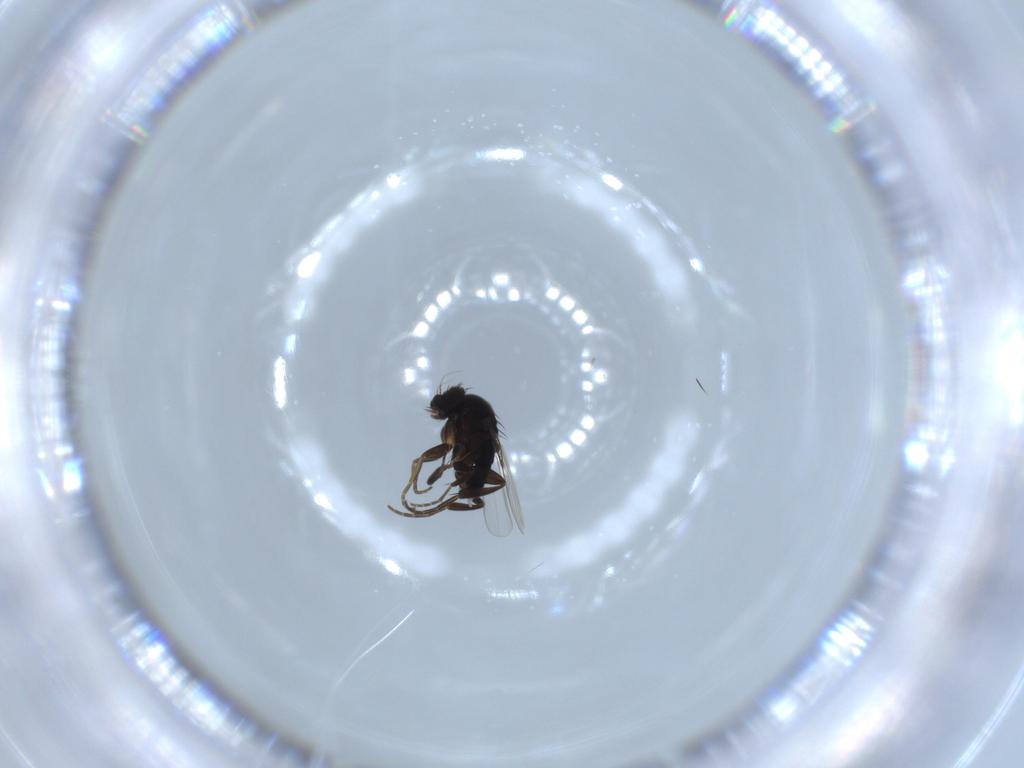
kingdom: Animalia
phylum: Arthropoda
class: Insecta
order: Diptera
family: Phoridae
